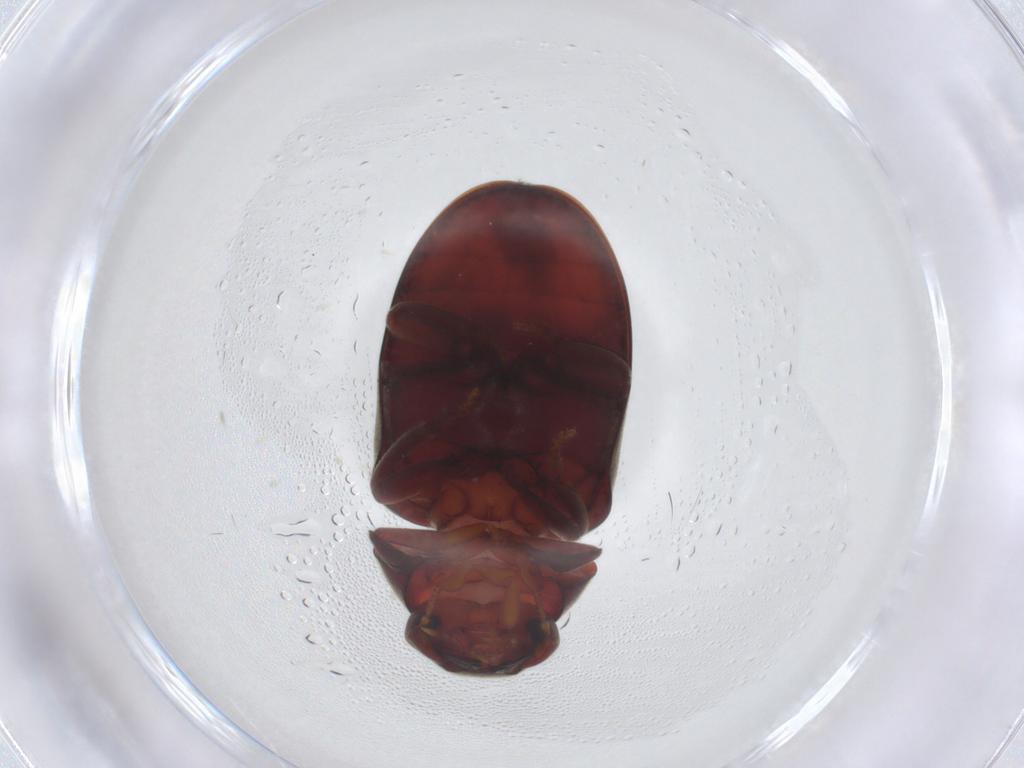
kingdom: Animalia
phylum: Arthropoda
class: Insecta
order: Coleoptera
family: Ptinidae
